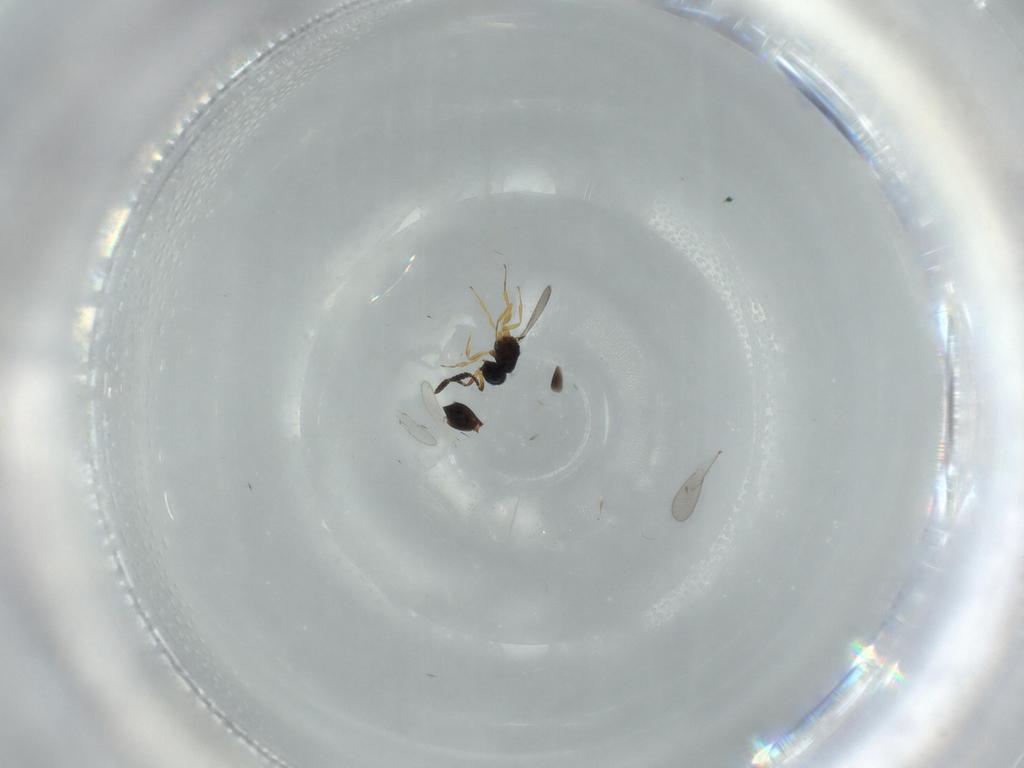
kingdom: Animalia
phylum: Arthropoda
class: Insecta
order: Hymenoptera
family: Scelionidae
